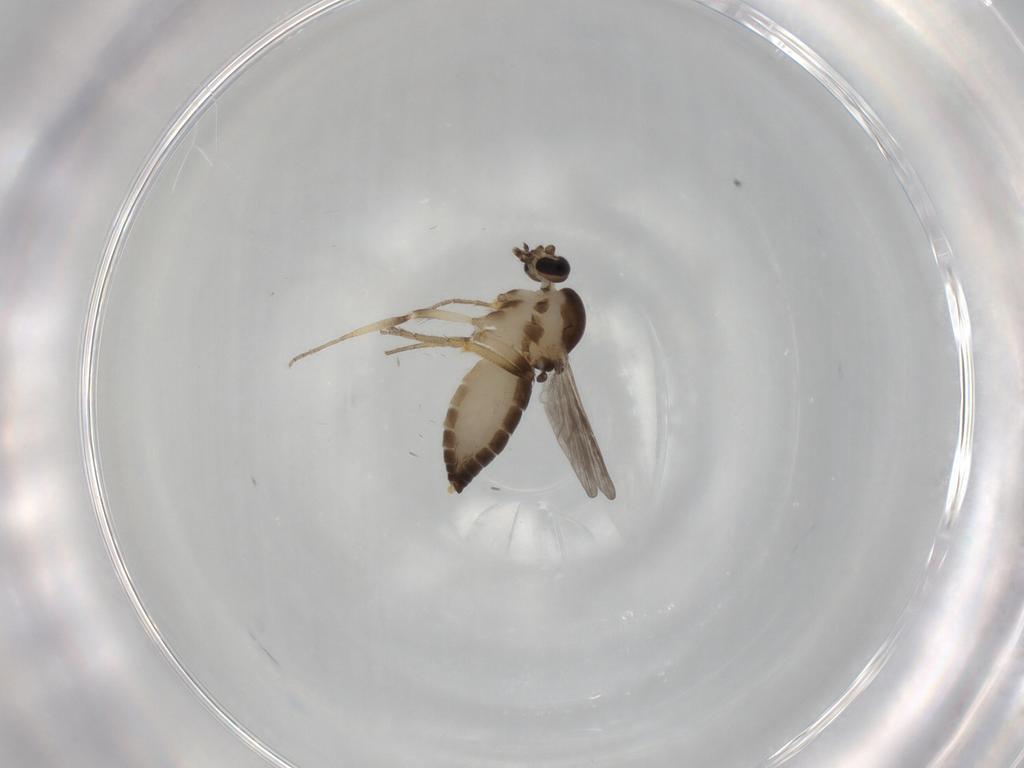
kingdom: Animalia
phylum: Arthropoda
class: Insecta
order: Diptera
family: Ceratopogonidae
